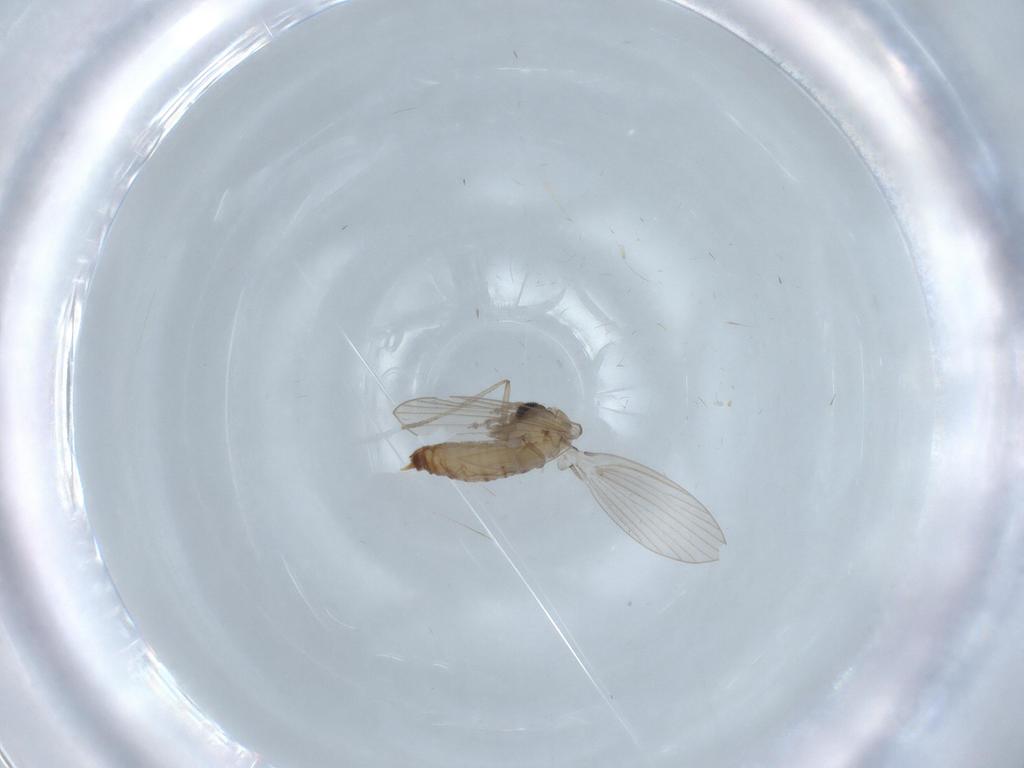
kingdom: Animalia
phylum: Arthropoda
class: Insecta
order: Diptera
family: Psychodidae
